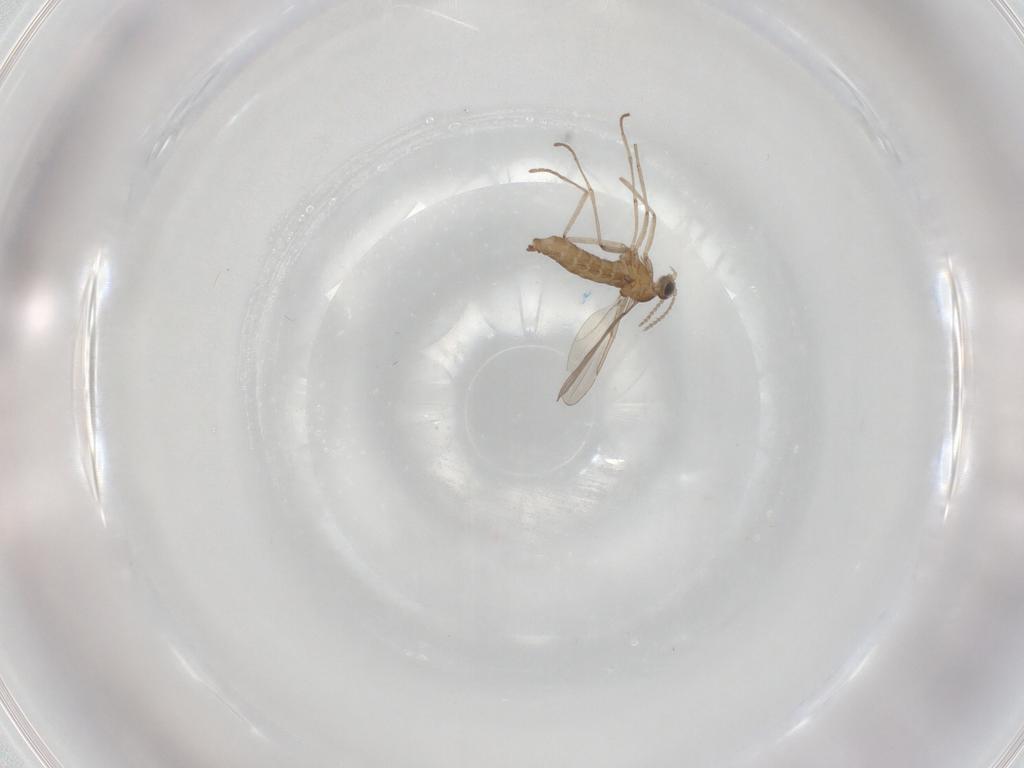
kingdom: Animalia
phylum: Arthropoda
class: Insecta
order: Diptera
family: Cecidomyiidae
